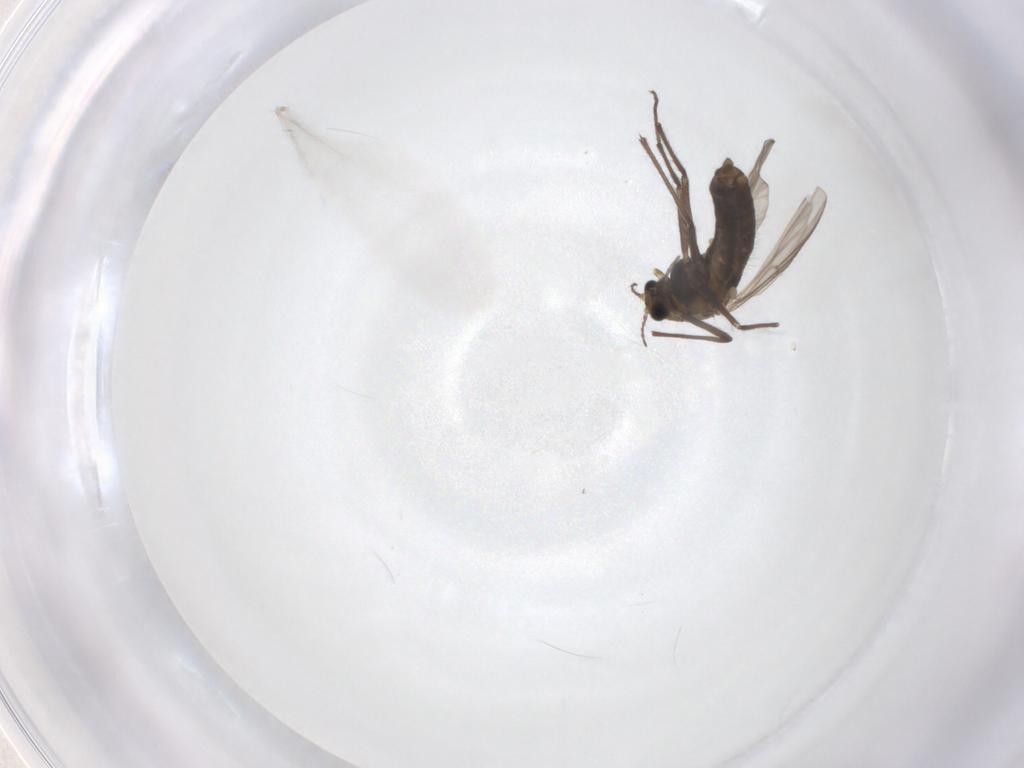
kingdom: Animalia
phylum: Arthropoda
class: Insecta
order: Diptera
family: Chironomidae
